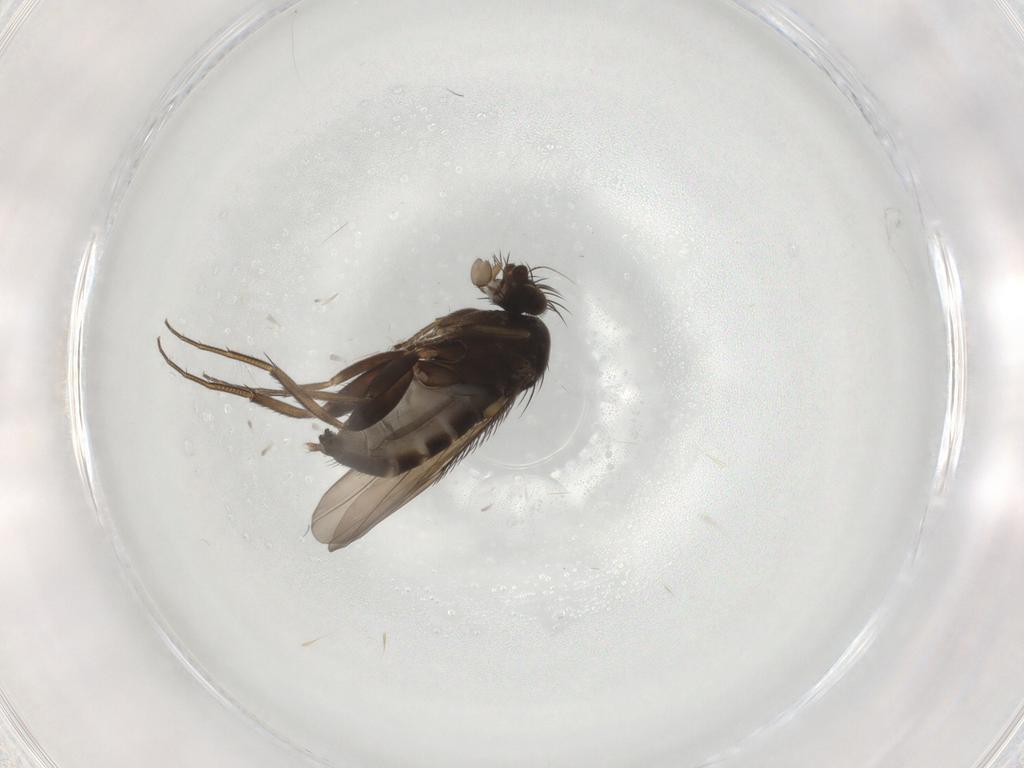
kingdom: Animalia
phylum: Arthropoda
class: Insecta
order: Diptera
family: Phoridae
